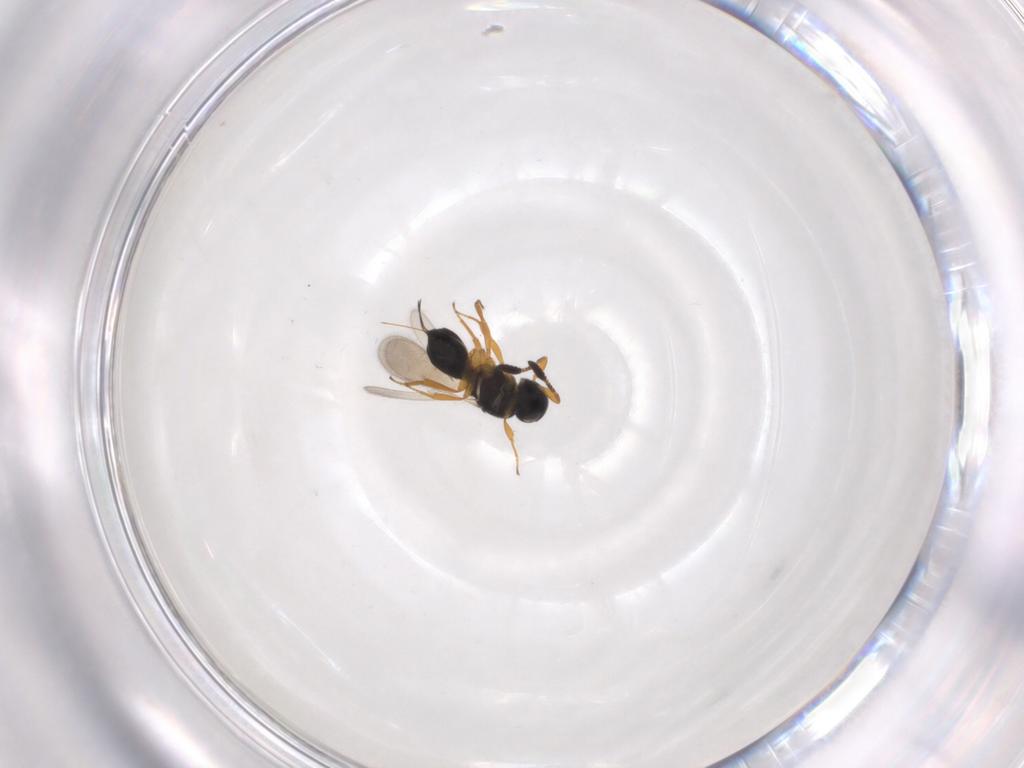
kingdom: Animalia
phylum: Arthropoda
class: Insecta
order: Hymenoptera
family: Scelionidae
